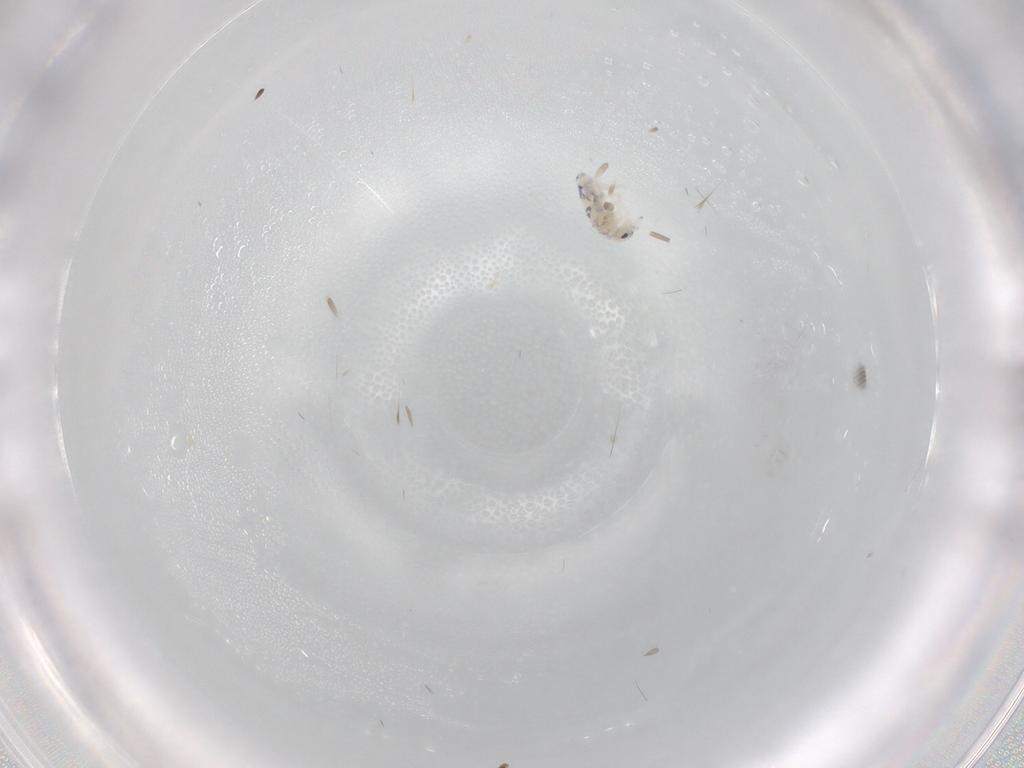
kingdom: Animalia
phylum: Arthropoda
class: Collembola
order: Entomobryomorpha
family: Entomobryidae
